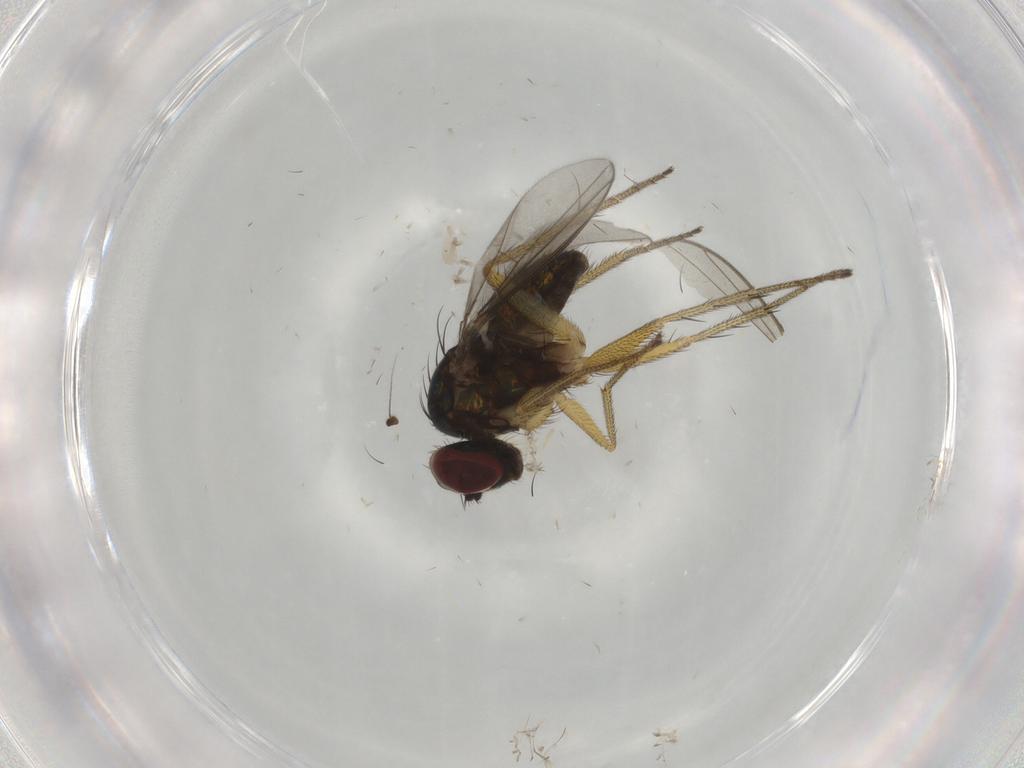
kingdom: Animalia
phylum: Arthropoda
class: Insecta
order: Diptera
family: Dolichopodidae
